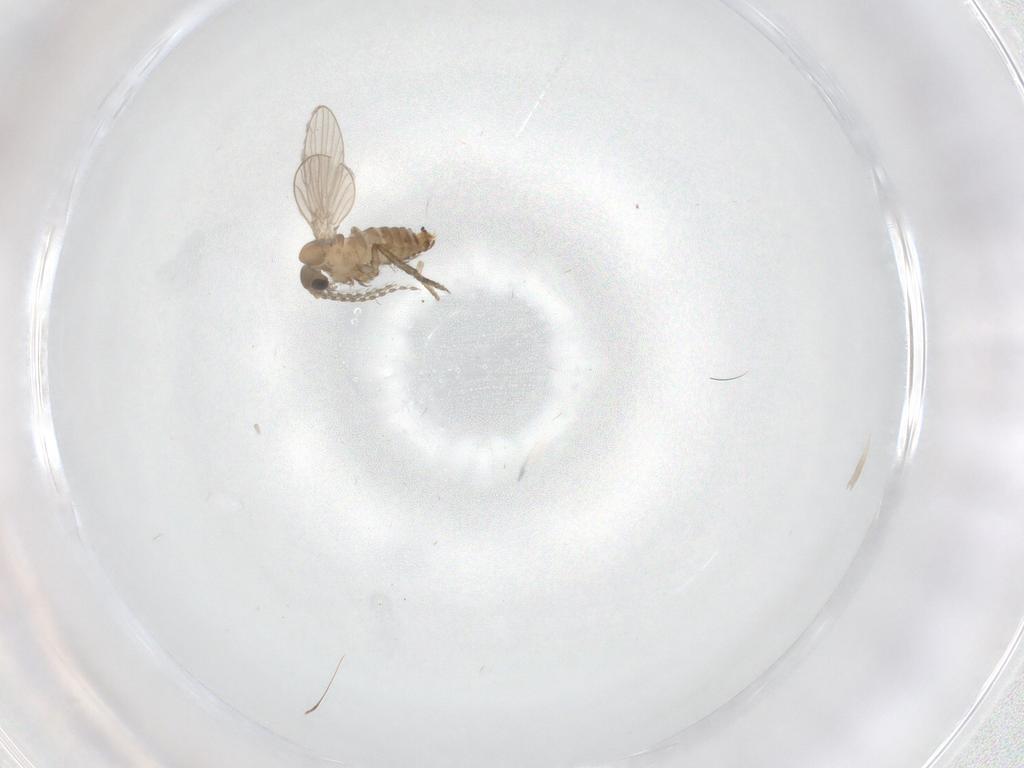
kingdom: Animalia
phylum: Arthropoda
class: Insecta
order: Diptera
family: Psychodidae
